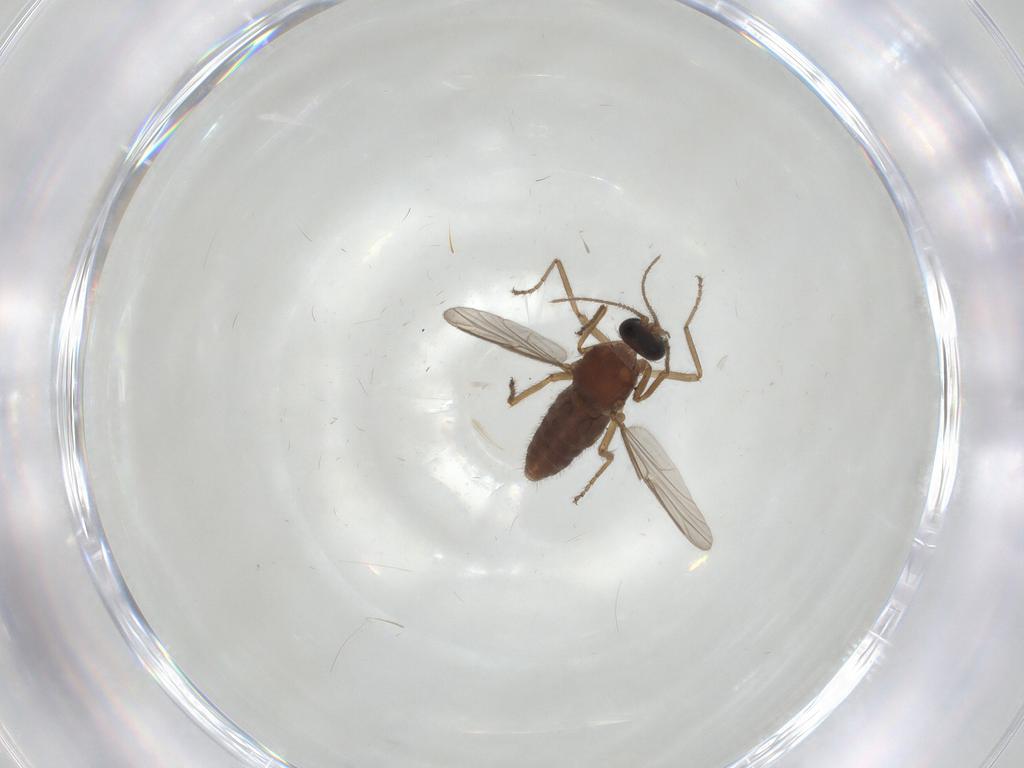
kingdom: Animalia
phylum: Arthropoda
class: Insecta
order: Diptera
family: Ceratopogonidae
